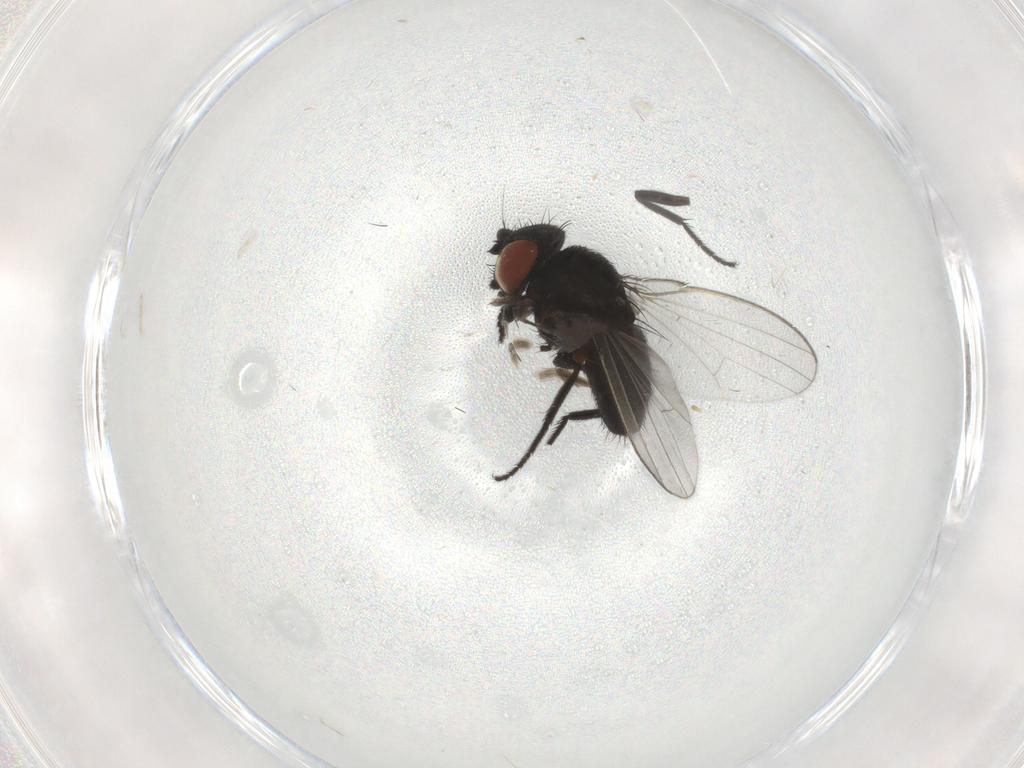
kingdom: Animalia
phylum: Arthropoda
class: Insecta
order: Diptera
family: Milichiidae
